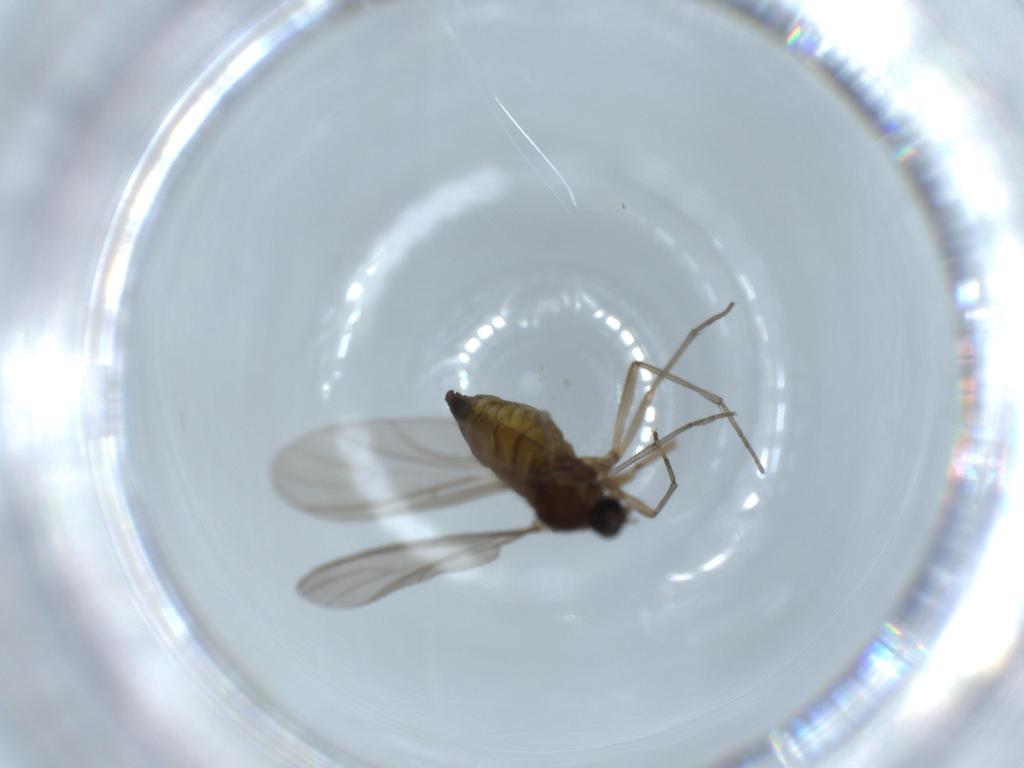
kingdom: Animalia
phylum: Arthropoda
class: Insecta
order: Diptera
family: Sciaridae
